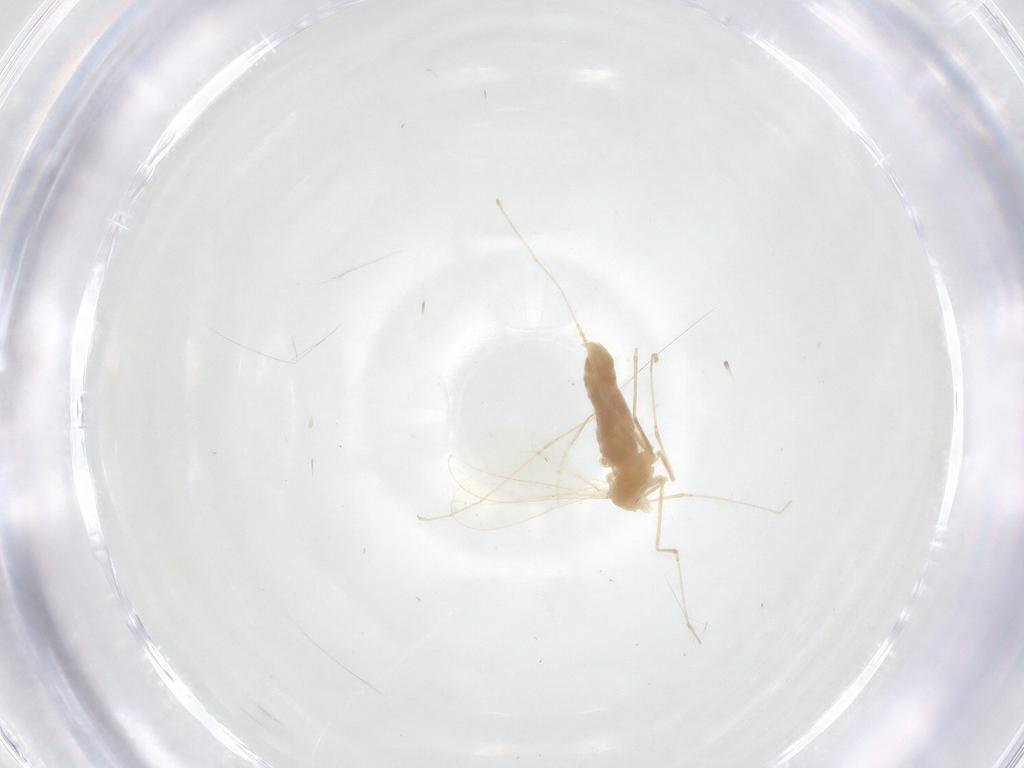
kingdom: Animalia
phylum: Arthropoda
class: Insecta
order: Diptera
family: Cecidomyiidae
